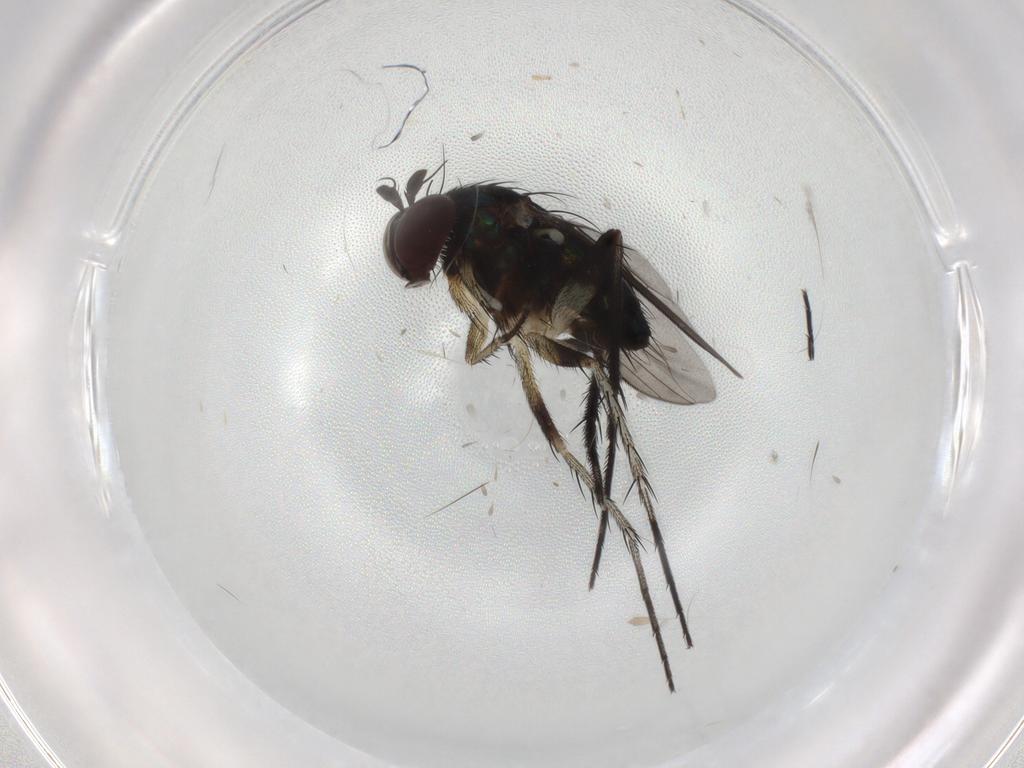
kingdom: Animalia
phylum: Arthropoda
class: Insecta
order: Diptera
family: Dolichopodidae
